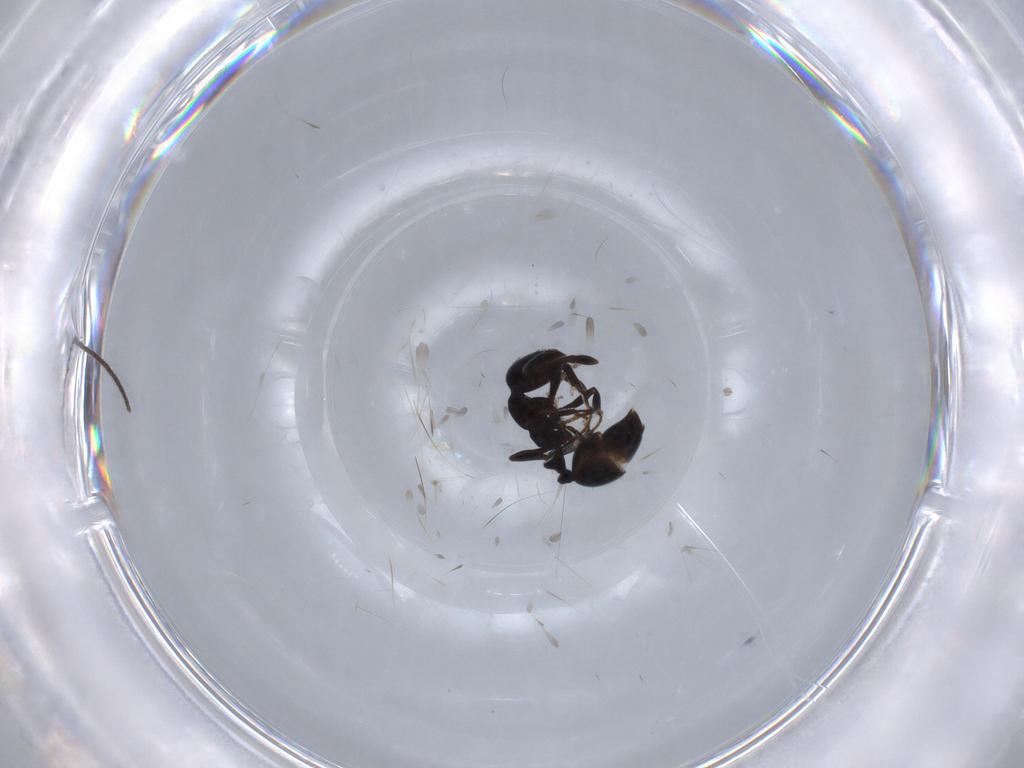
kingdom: Animalia
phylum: Arthropoda
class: Insecta
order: Hymenoptera
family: Formicidae
